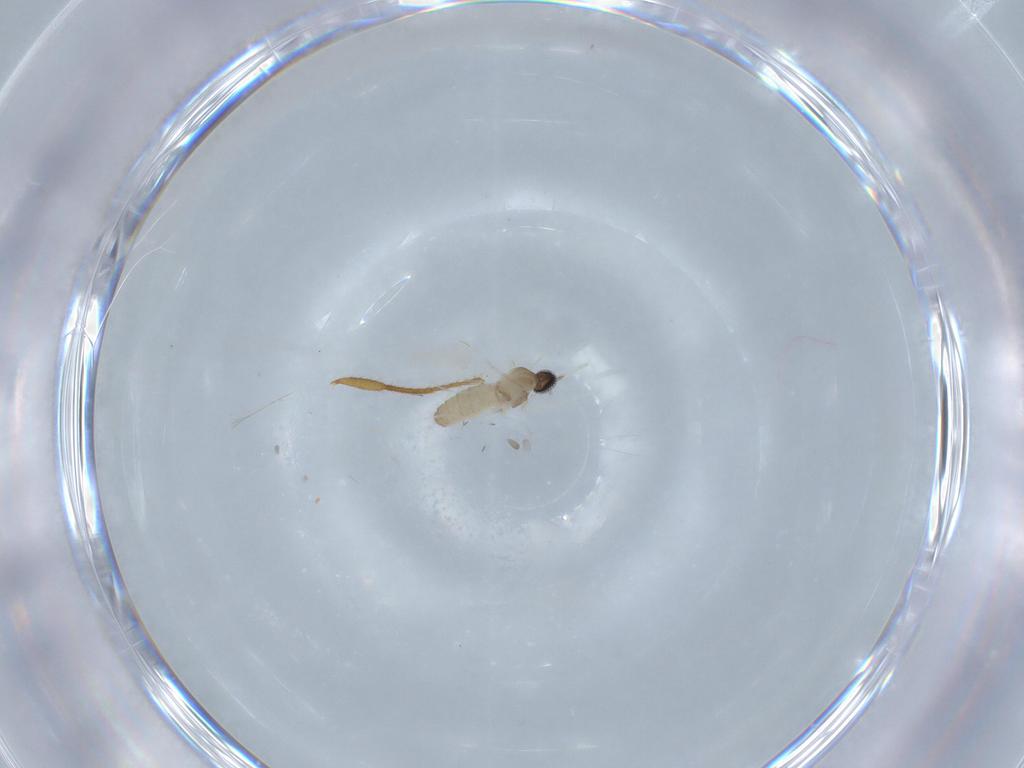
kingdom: Animalia
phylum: Arthropoda
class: Insecta
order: Diptera
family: Cecidomyiidae
